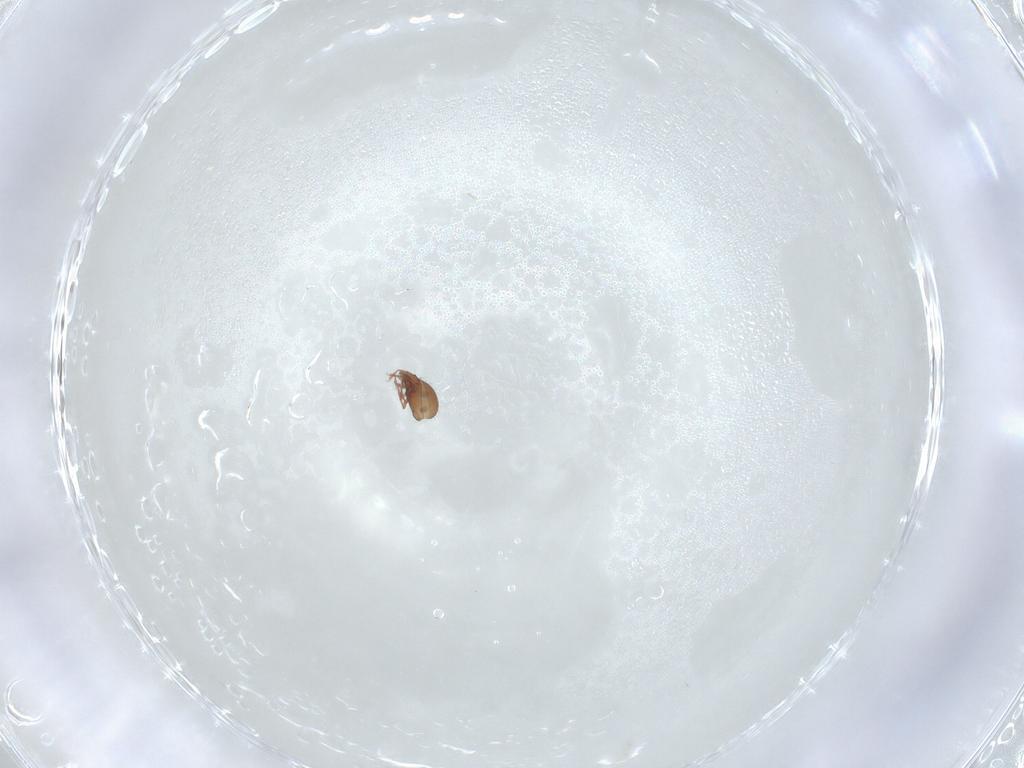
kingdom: Animalia
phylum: Arthropoda
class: Arachnida
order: Sarcoptiformes
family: Oribatulidae
